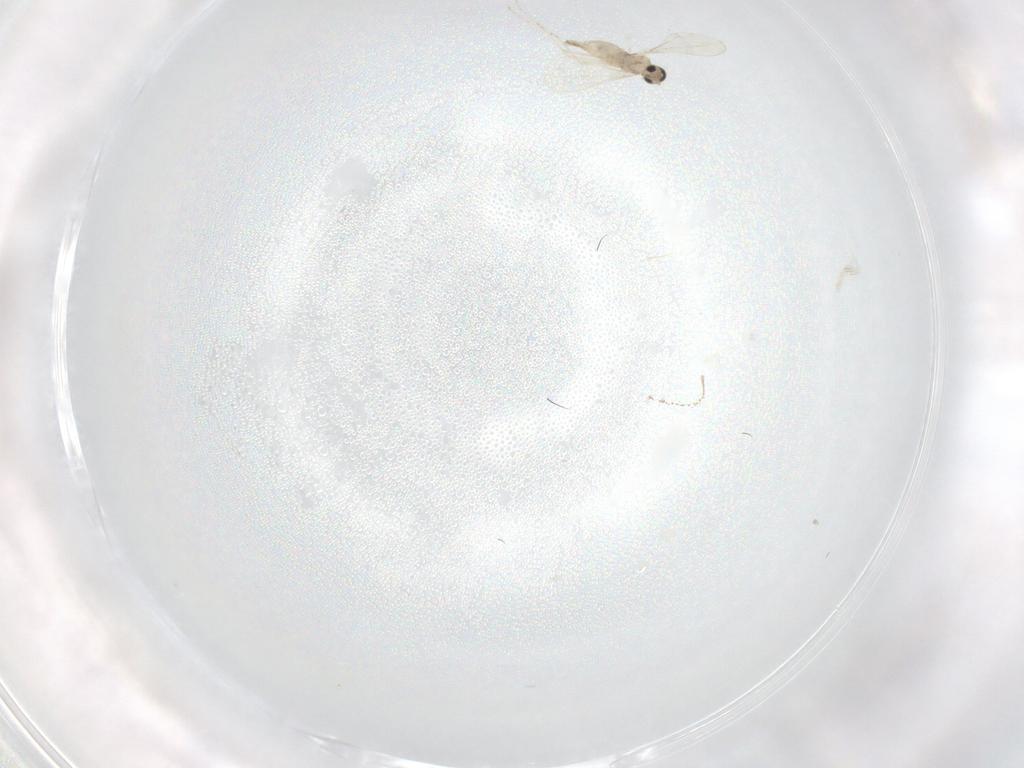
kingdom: Animalia
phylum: Arthropoda
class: Insecta
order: Diptera
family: Cecidomyiidae
